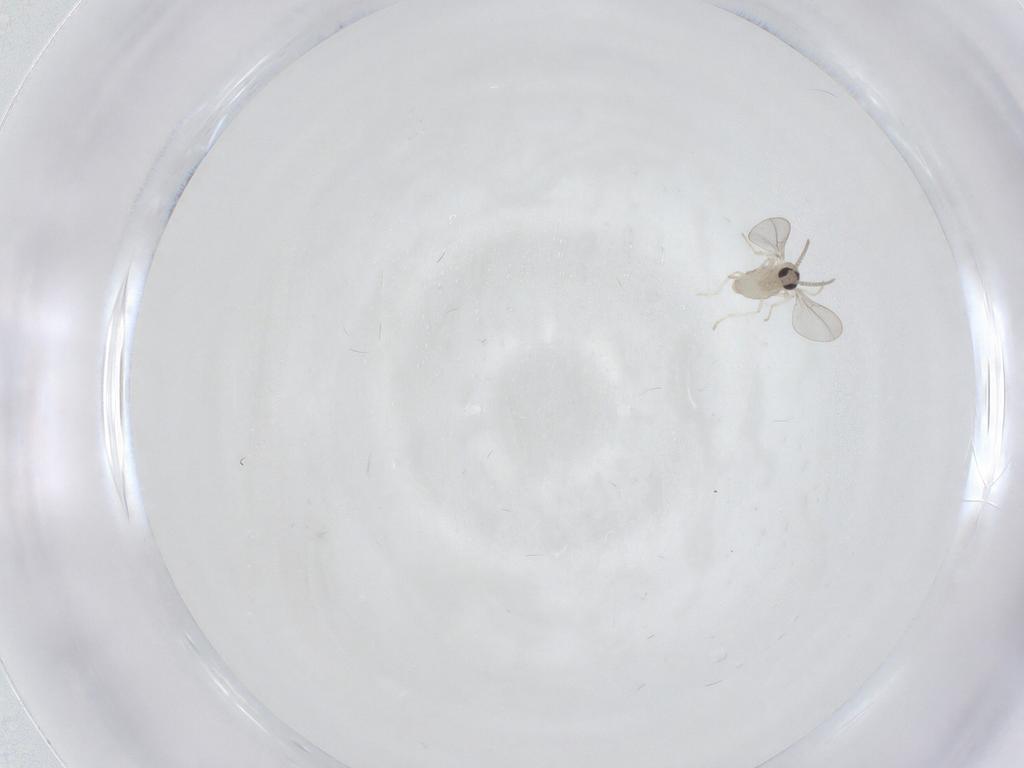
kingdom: Animalia
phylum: Arthropoda
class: Insecta
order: Diptera
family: Cecidomyiidae
